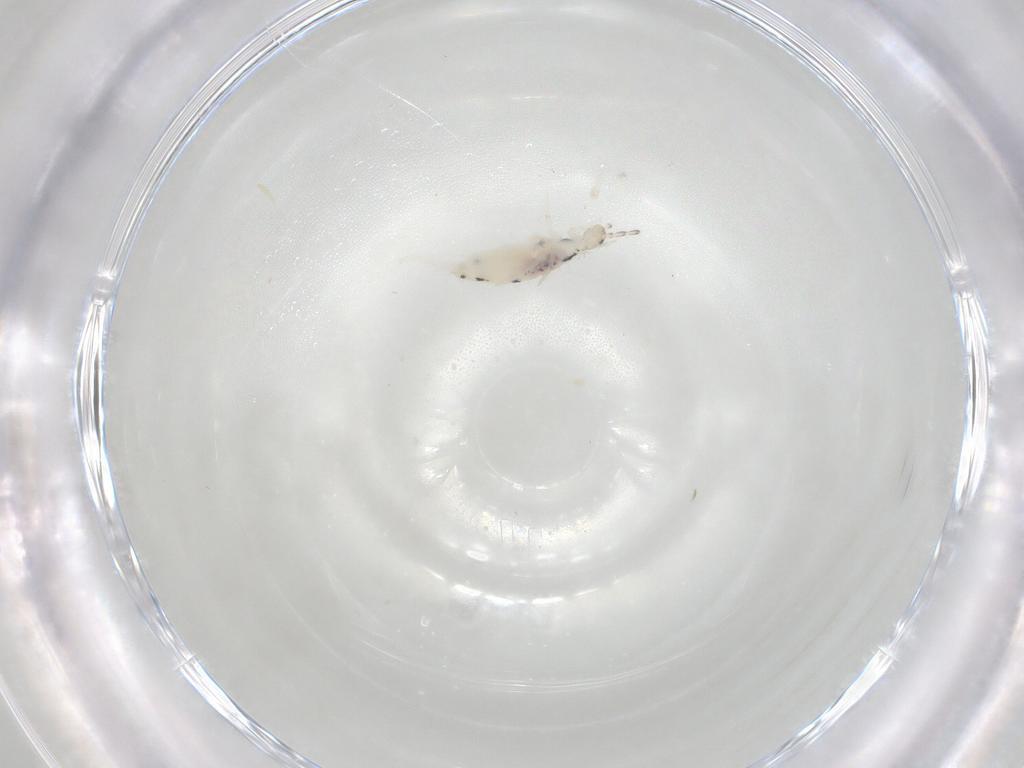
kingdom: Animalia
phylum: Arthropoda
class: Collembola
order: Entomobryomorpha
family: Entomobryidae
